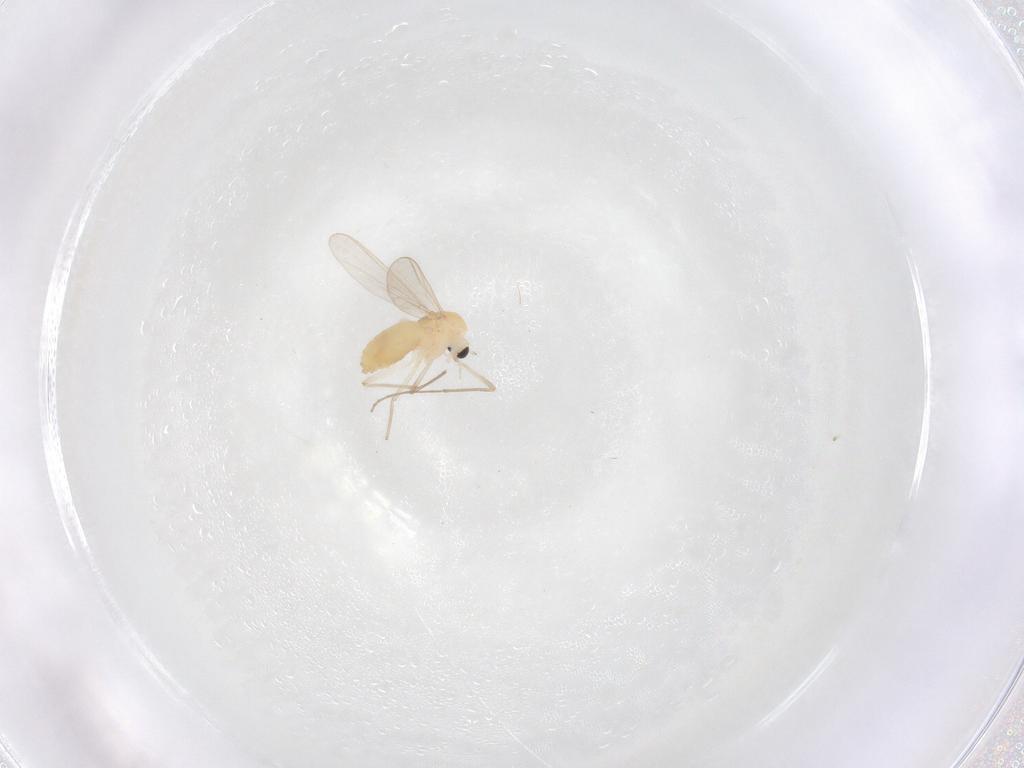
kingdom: Animalia
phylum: Arthropoda
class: Insecta
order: Diptera
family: Chironomidae
